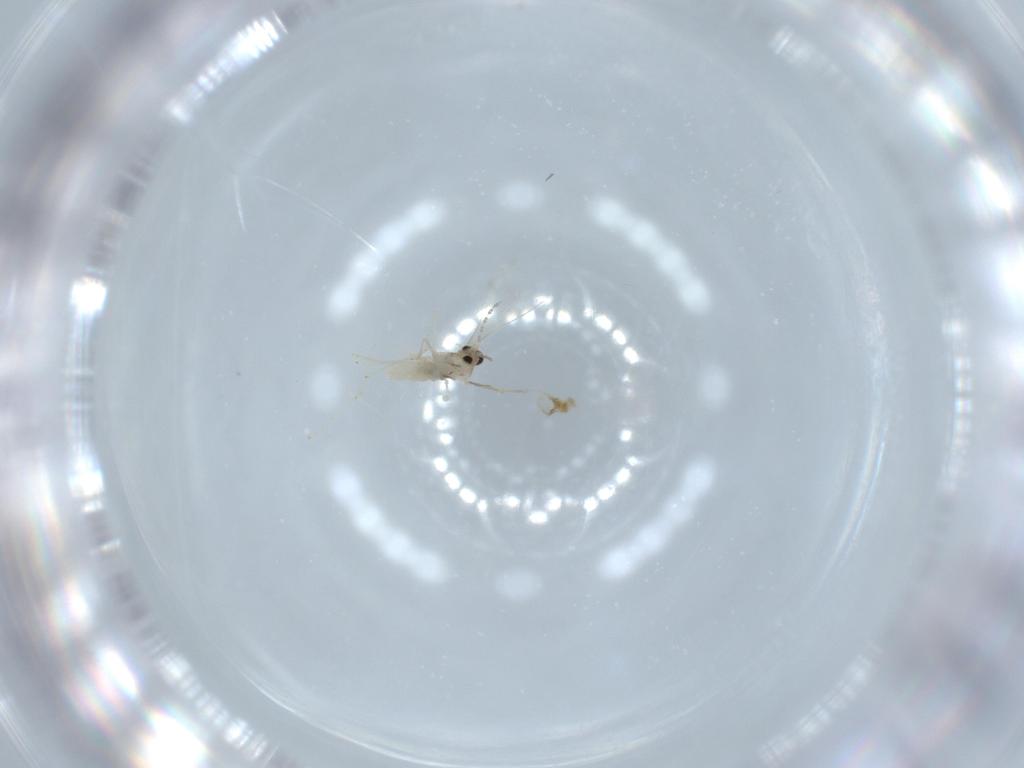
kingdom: Animalia
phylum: Arthropoda
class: Insecta
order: Diptera
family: Cecidomyiidae
